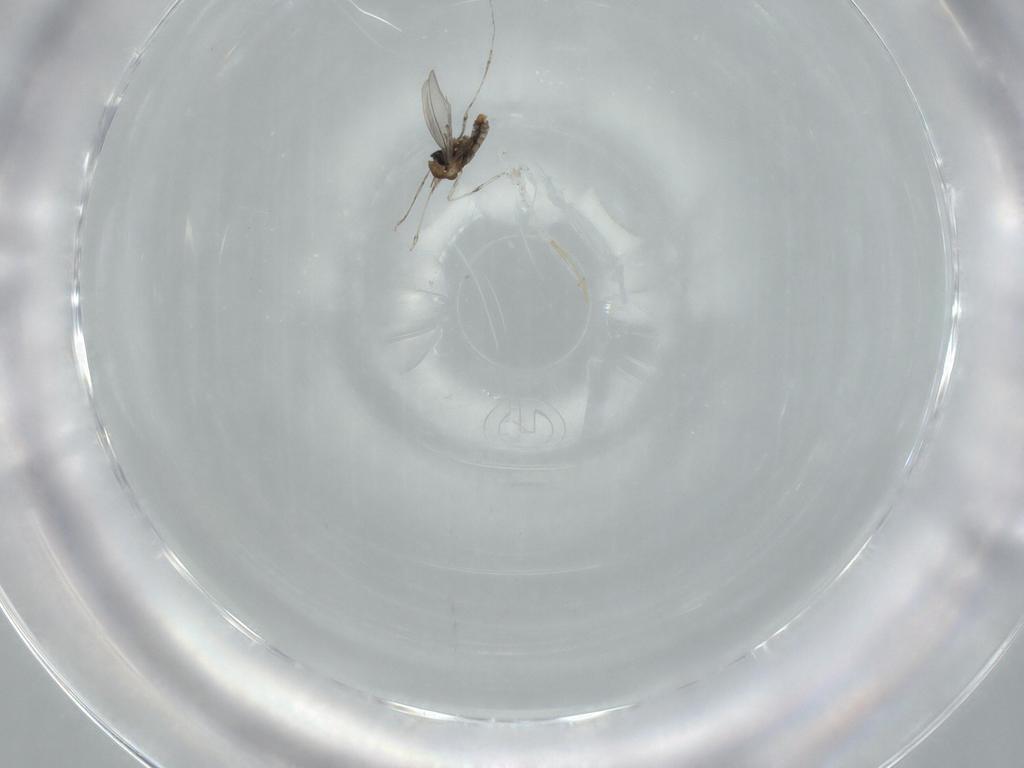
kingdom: Animalia
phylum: Arthropoda
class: Insecta
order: Diptera
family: Cecidomyiidae
